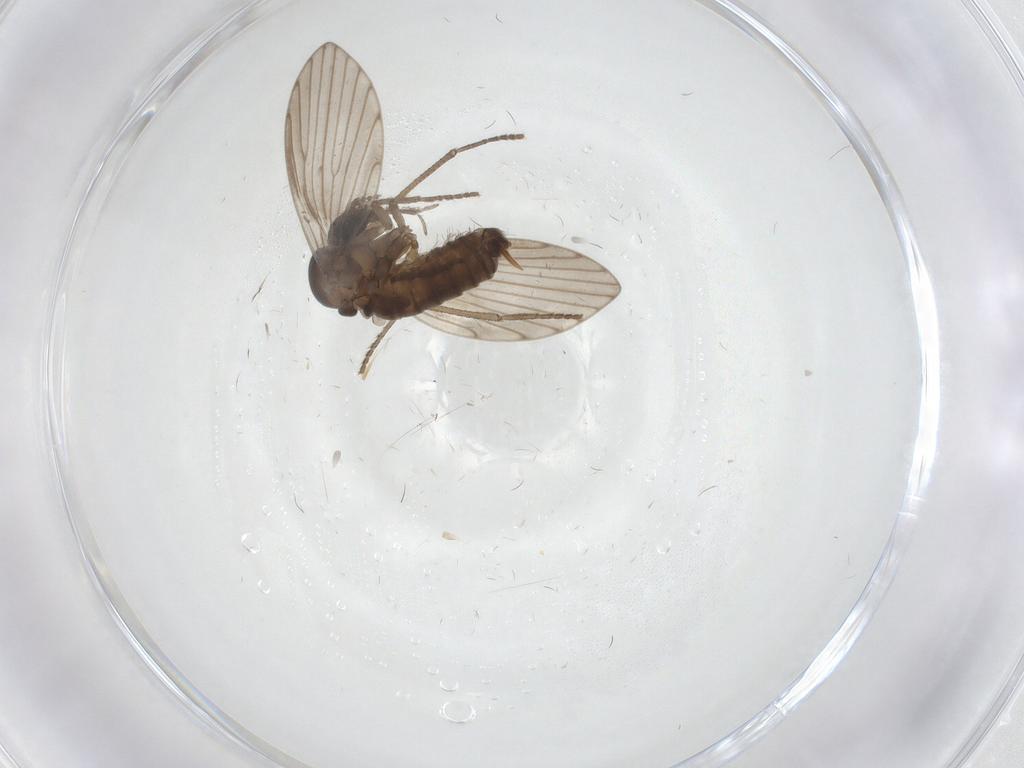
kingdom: Animalia
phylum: Arthropoda
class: Insecta
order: Diptera
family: Psychodidae
